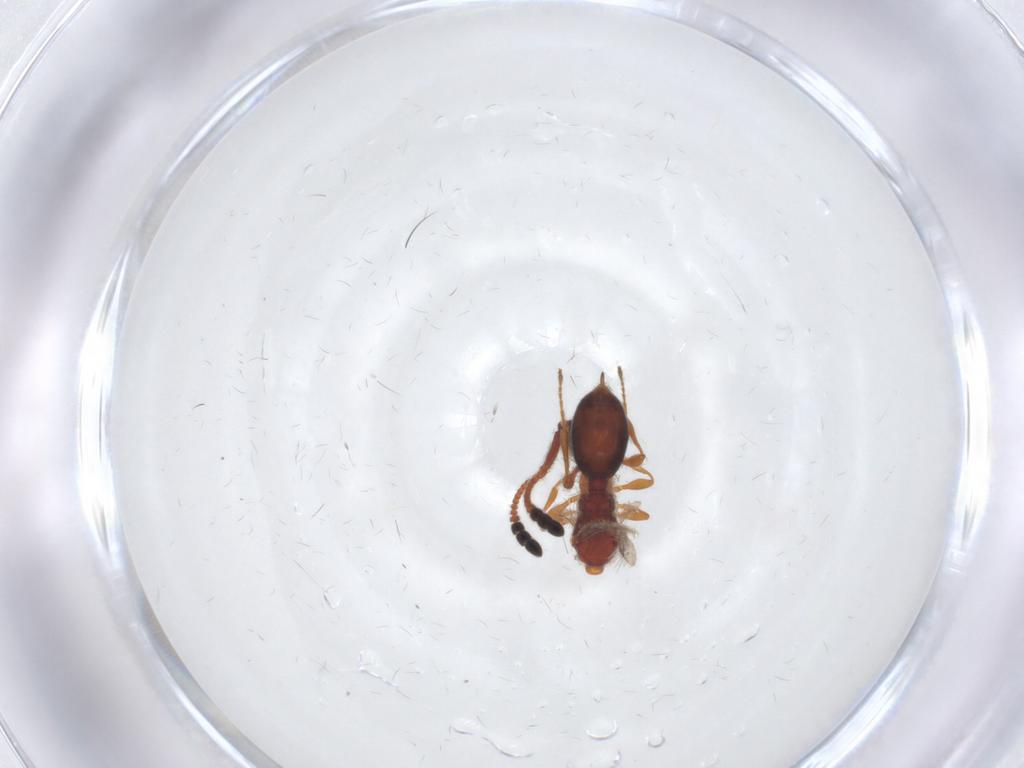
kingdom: Animalia
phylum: Arthropoda
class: Insecta
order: Hymenoptera
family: Diapriidae
